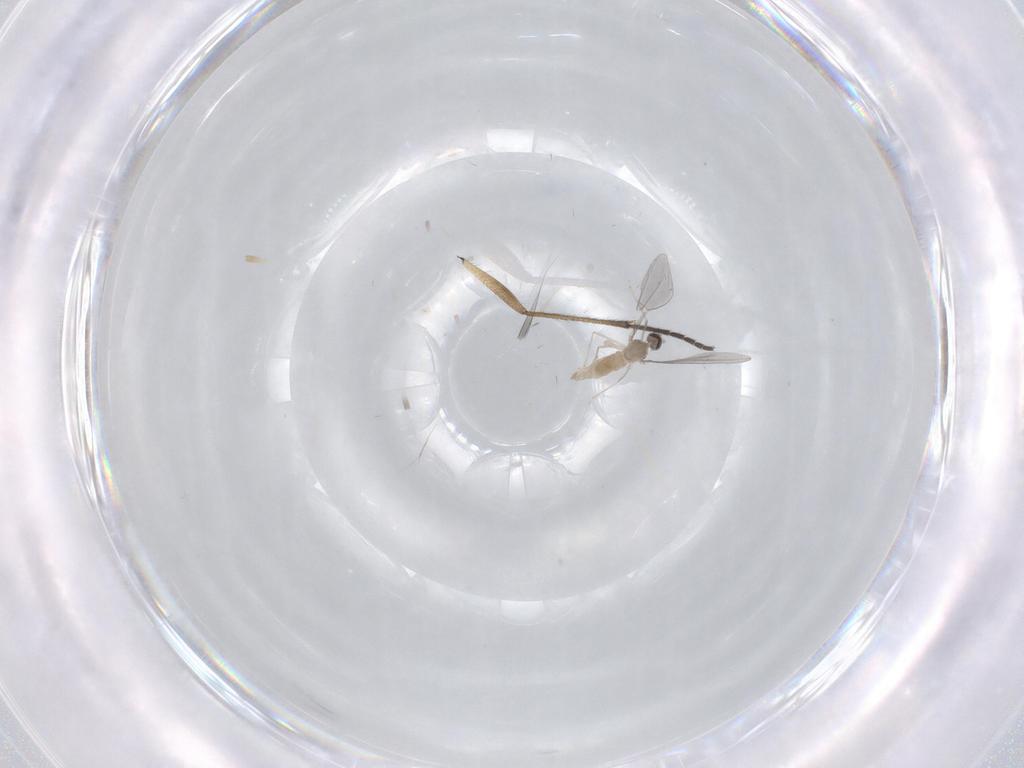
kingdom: Animalia
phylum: Arthropoda
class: Insecta
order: Diptera
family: Sciaridae
